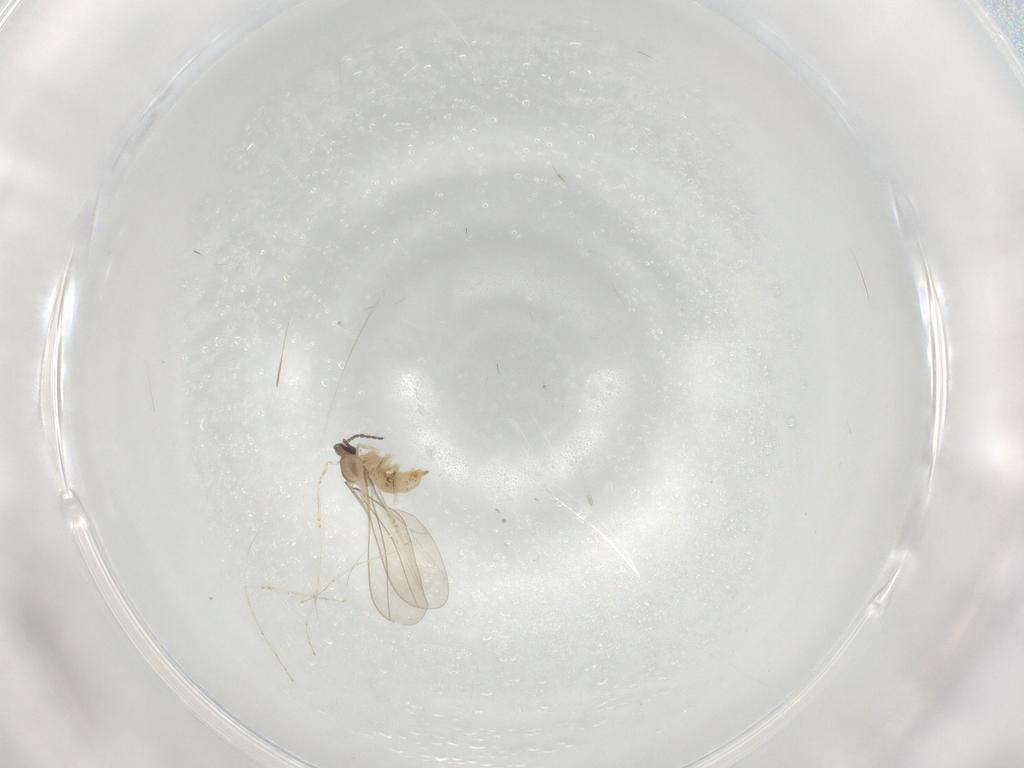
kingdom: Animalia
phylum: Arthropoda
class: Insecta
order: Diptera
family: Cecidomyiidae
